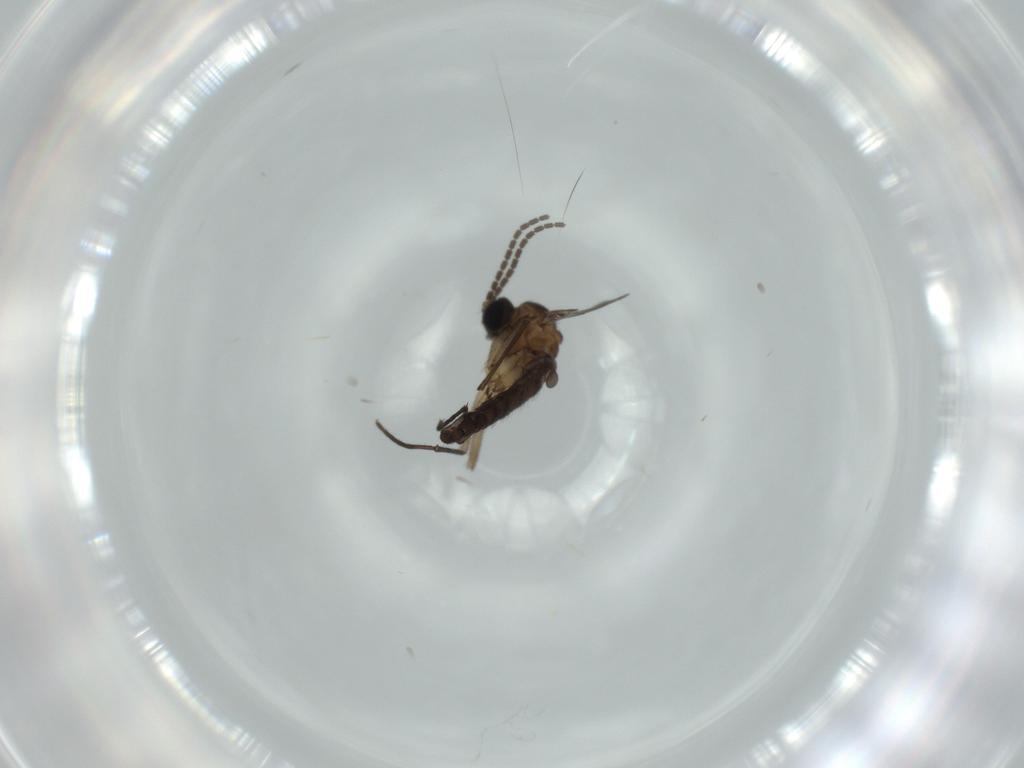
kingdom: Animalia
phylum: Arthropoda
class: Insecta
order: Diptera
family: Sciaridae
